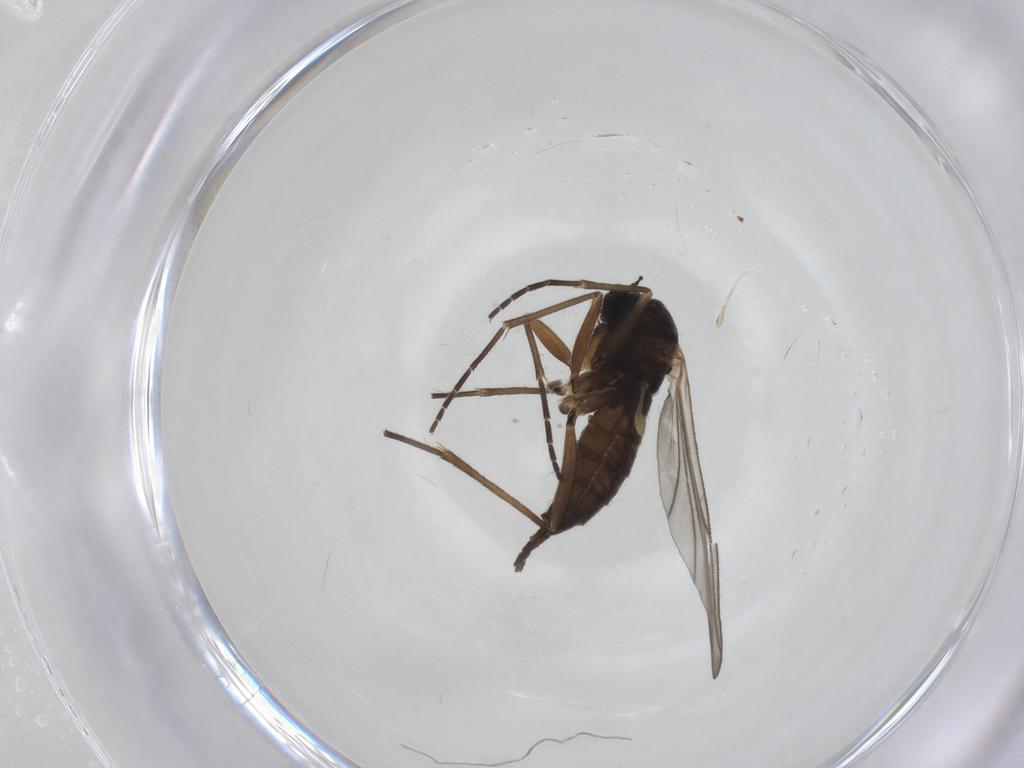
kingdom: Animalia
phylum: Arthropoda
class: Insecta
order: Diptera
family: Sciaridae
